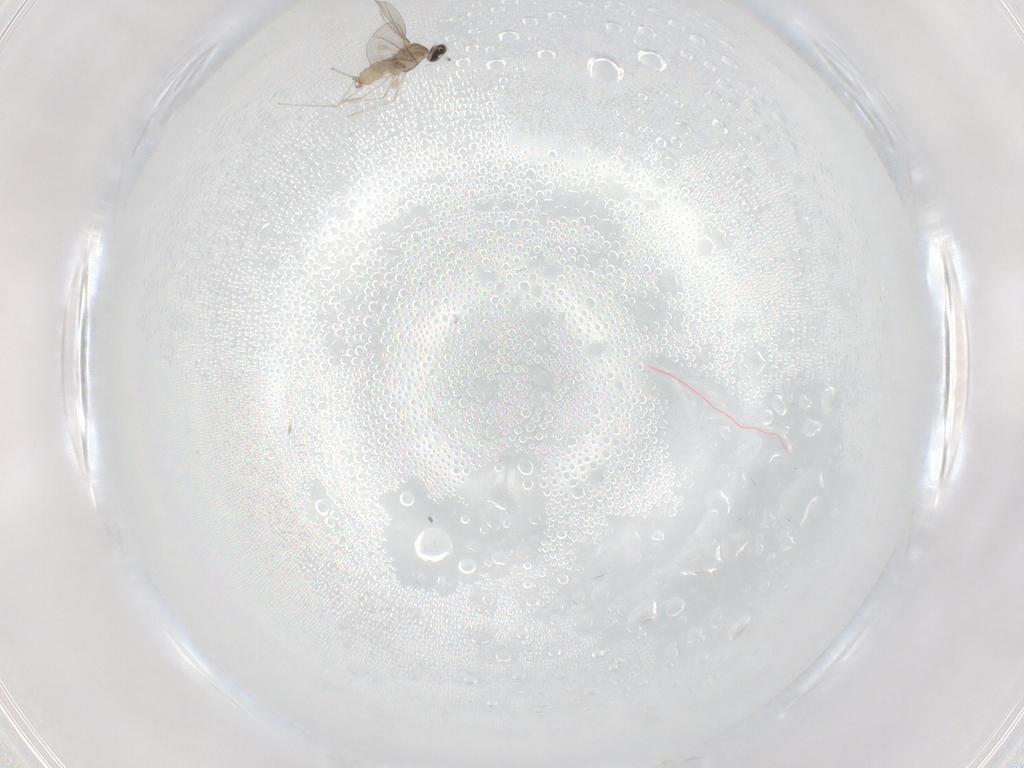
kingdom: Animalia
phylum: Arthropoda
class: Insecta
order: Diptera
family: Cecidomyiidae
